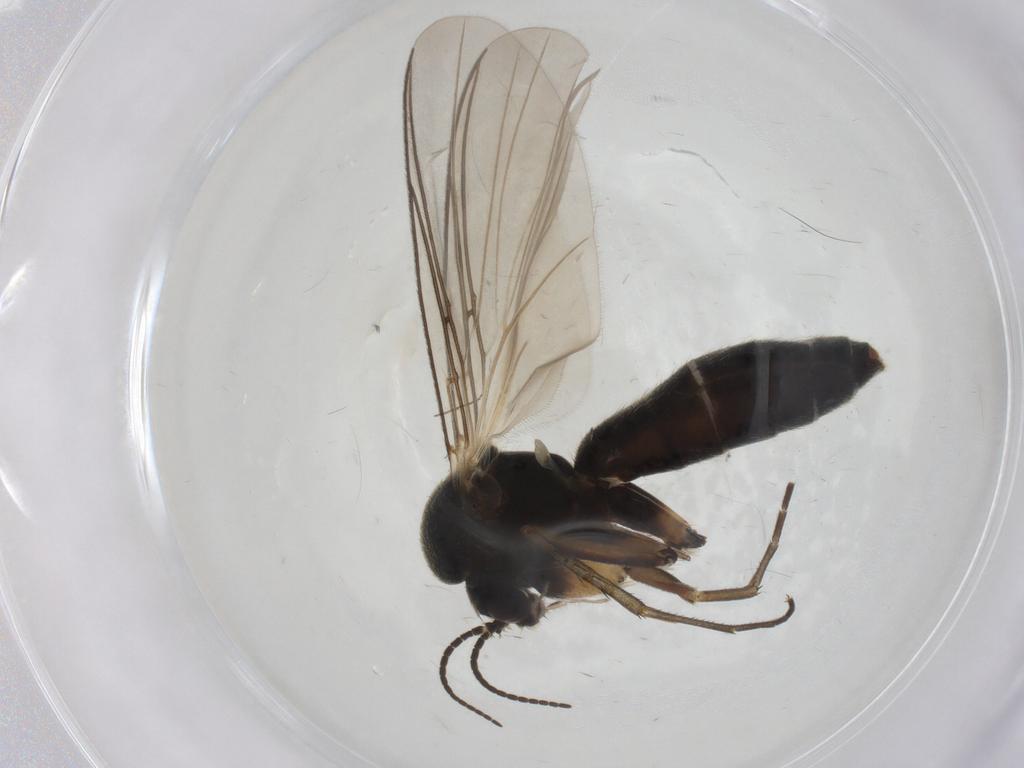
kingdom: Animalia
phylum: Arthropoda
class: Insecta
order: Diptera
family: Mycetophilidae
